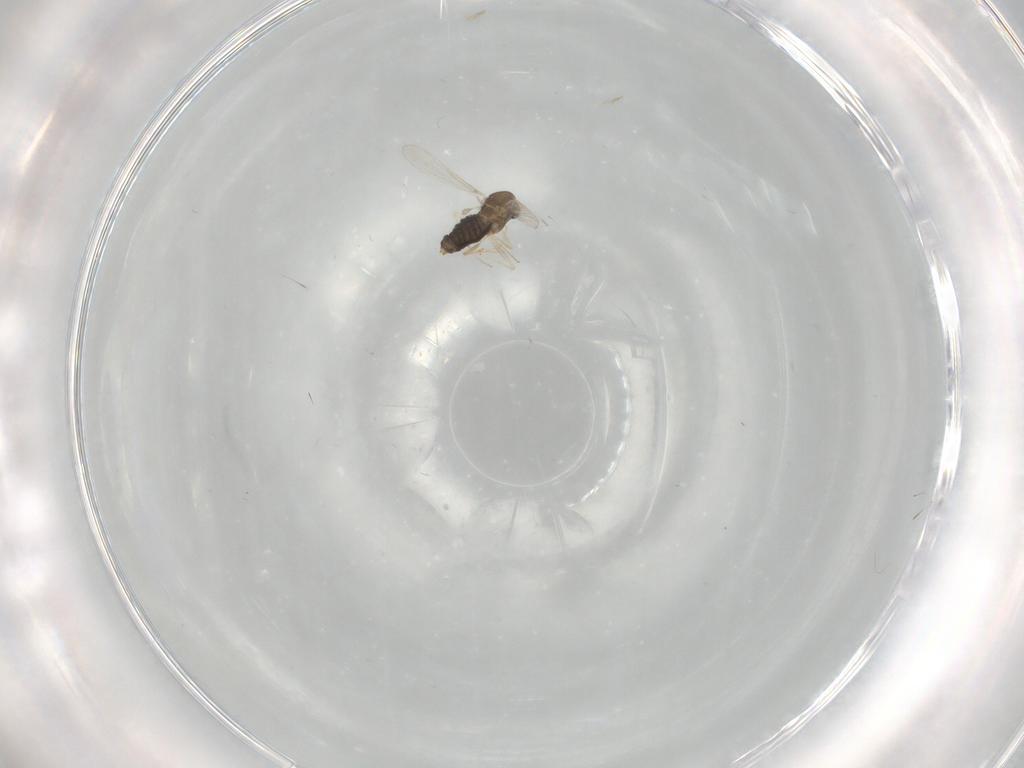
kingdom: Animalia
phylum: Arthropoda
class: Insecta
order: Diptera
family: Chironomidae
